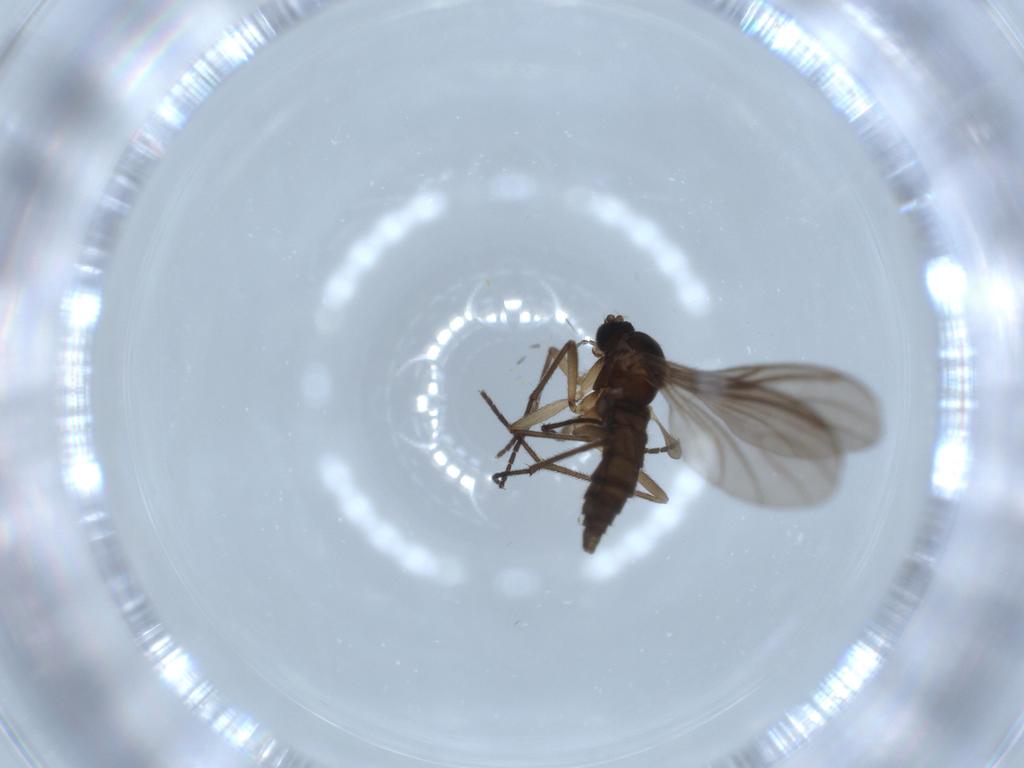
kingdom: Animalia
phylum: Arthropoda
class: Insecta
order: Diptera
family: Sciaridae
